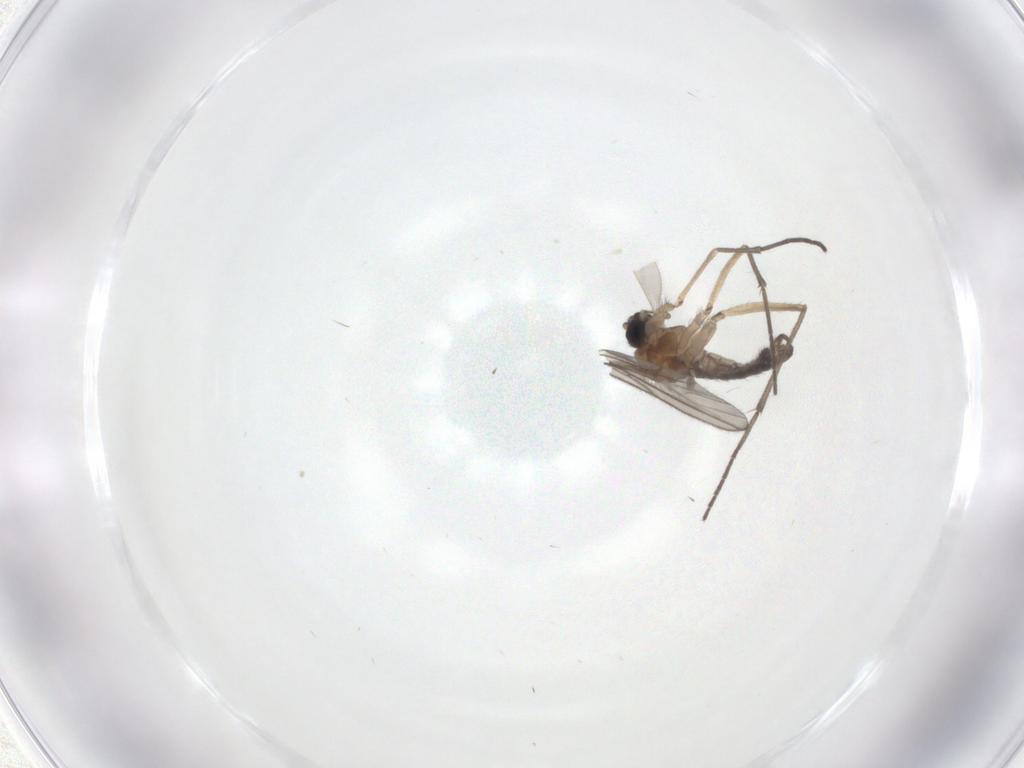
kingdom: Animalia
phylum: Arthropoda
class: Insecta
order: Diptera
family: Sciaridae
